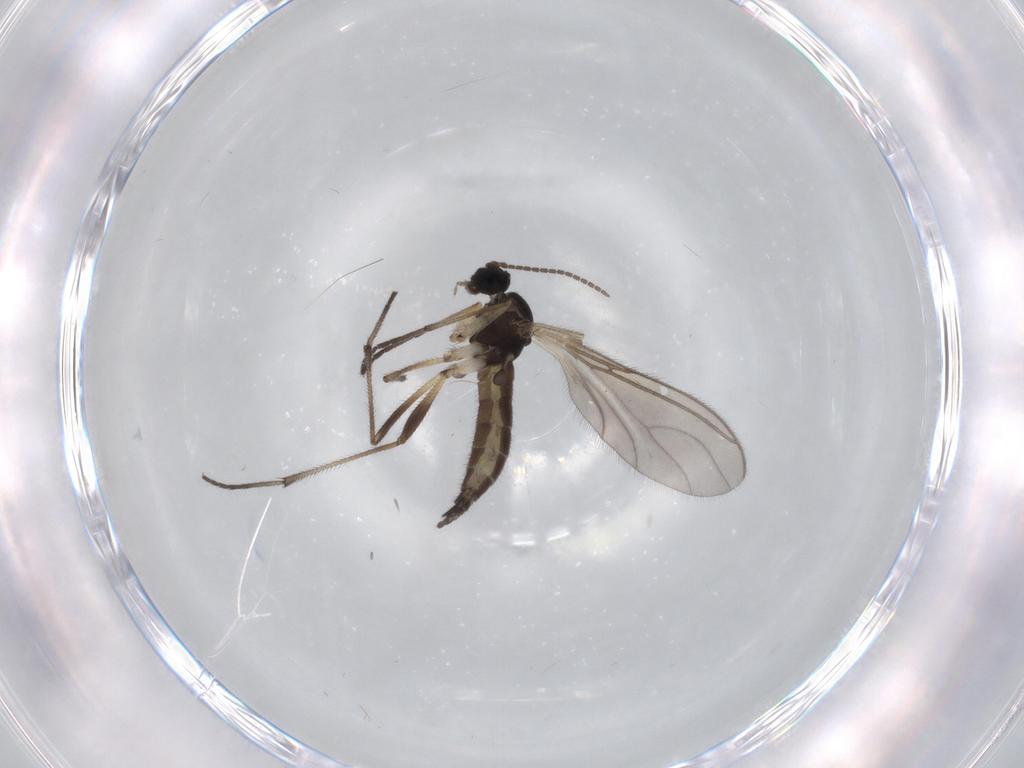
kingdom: Animalia
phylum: Arthropoda
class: Insecta
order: Diptera
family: Sciaridae
